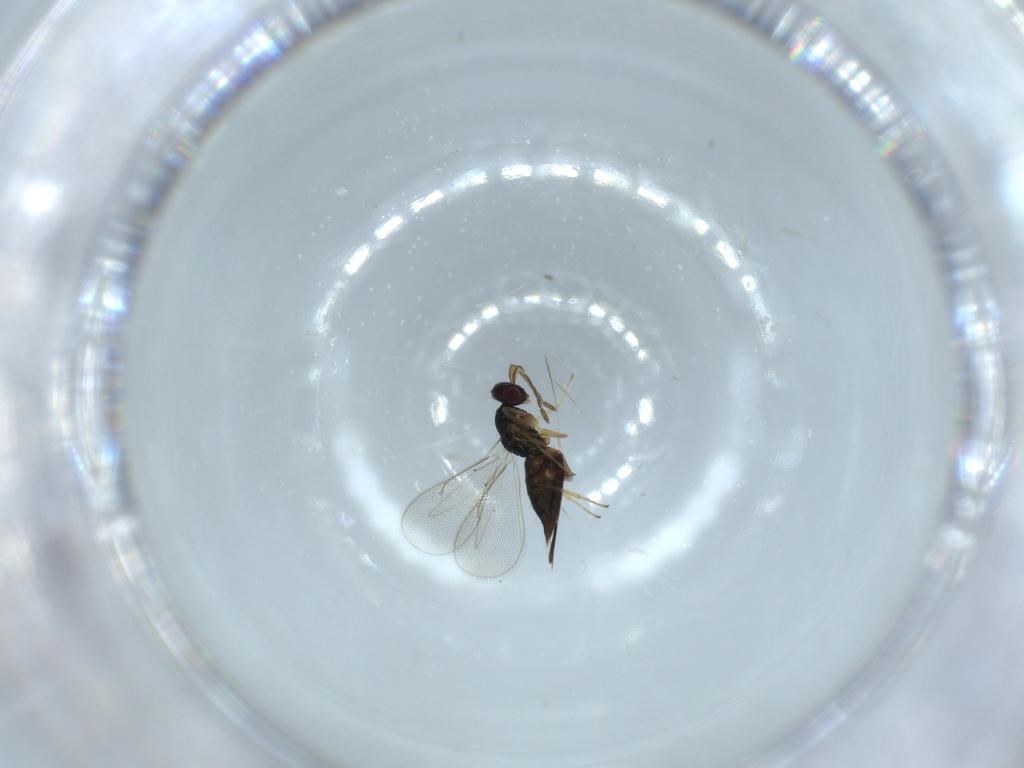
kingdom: Animalia
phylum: Arthropoda
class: Insecta
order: Hymenoptera
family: Eulophidae
